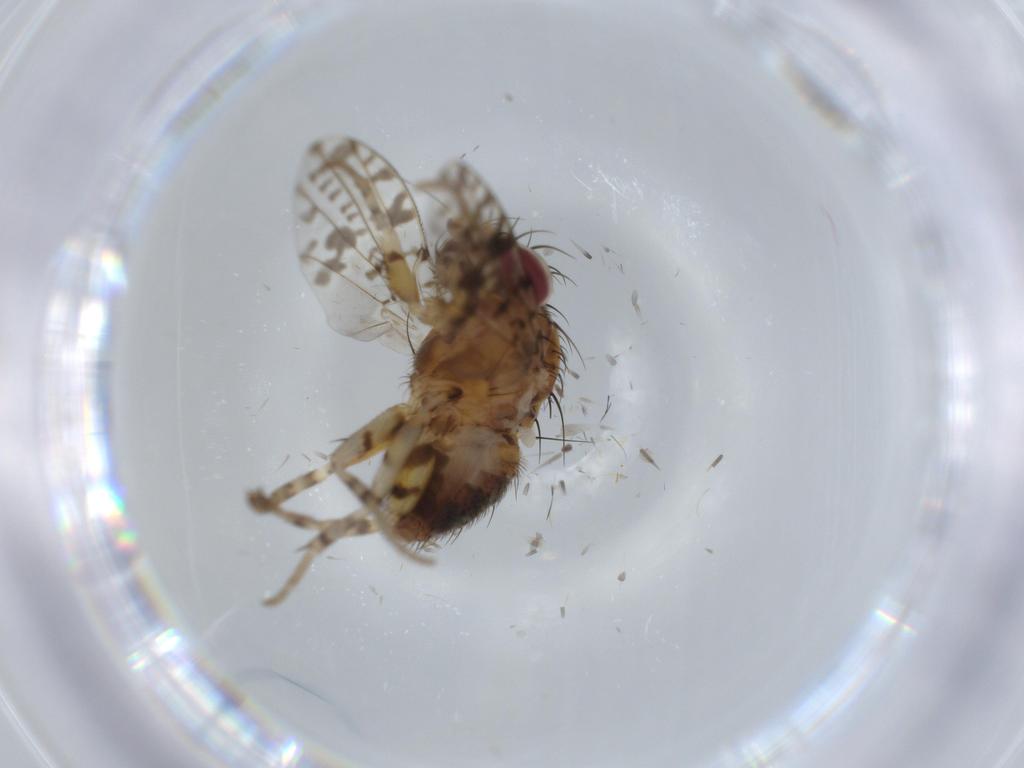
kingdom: Animalia
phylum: Arthropoda
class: Insecta
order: Diptera
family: Odiniidae
